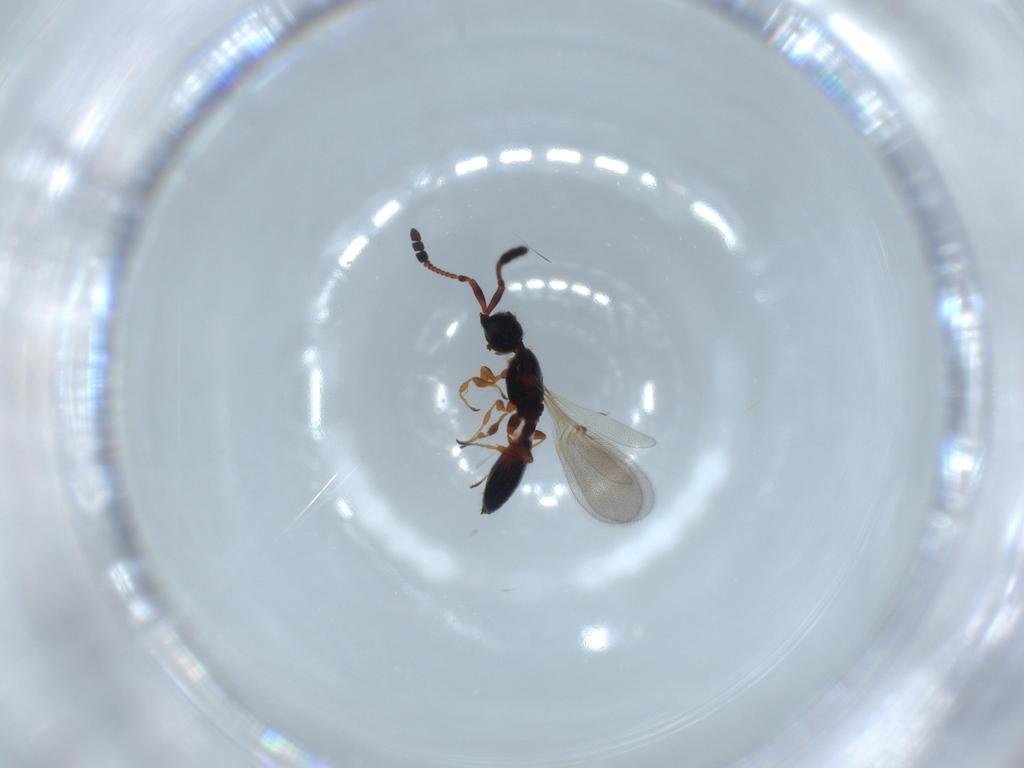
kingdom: Animalia
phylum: Arthropoda
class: Insecta
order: Hymenoptera
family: Diapriidae
